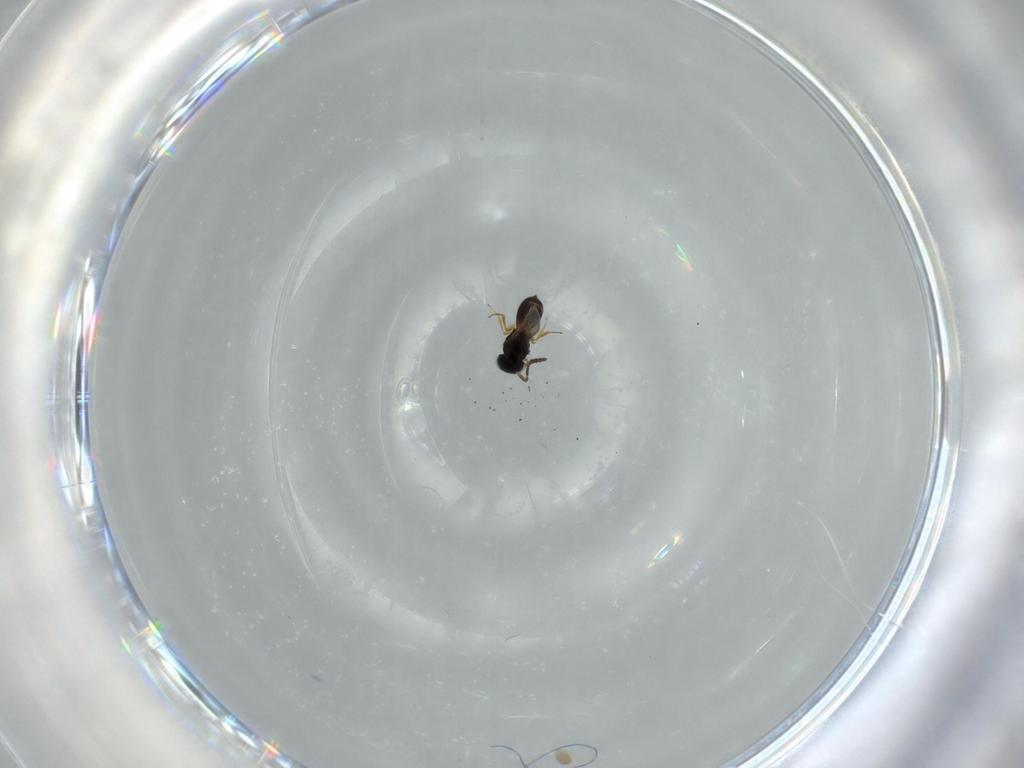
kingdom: Animalia
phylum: Arthropoda
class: Insecta
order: Hymenoptera
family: Scelionidae
